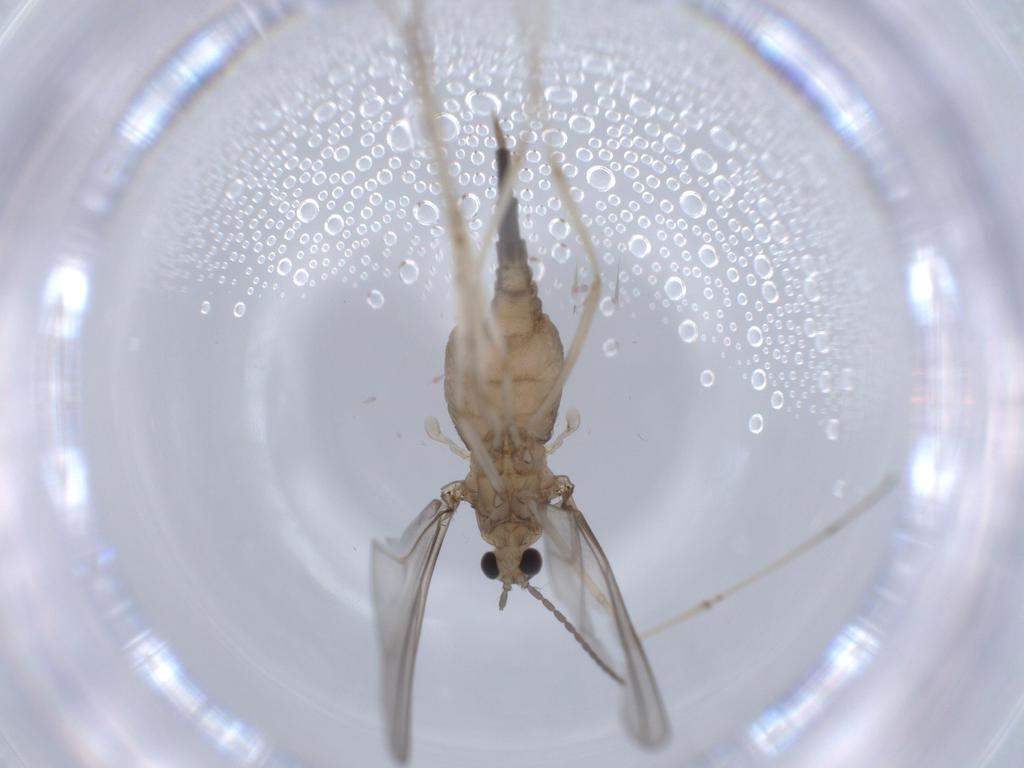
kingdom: Animalia
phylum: Arthropoda
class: Insecta
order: Diptera
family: Cecidomyiidae
